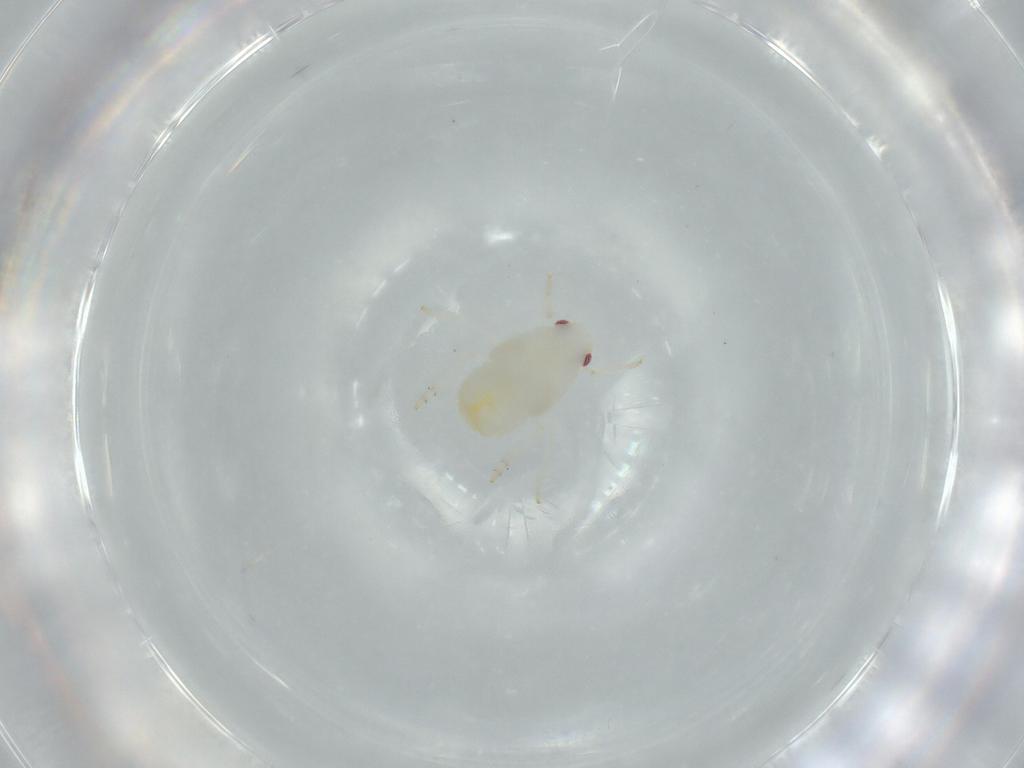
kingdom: Animalia
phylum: Arthropoda
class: Insecta
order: Hemiptera
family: Flatidae
